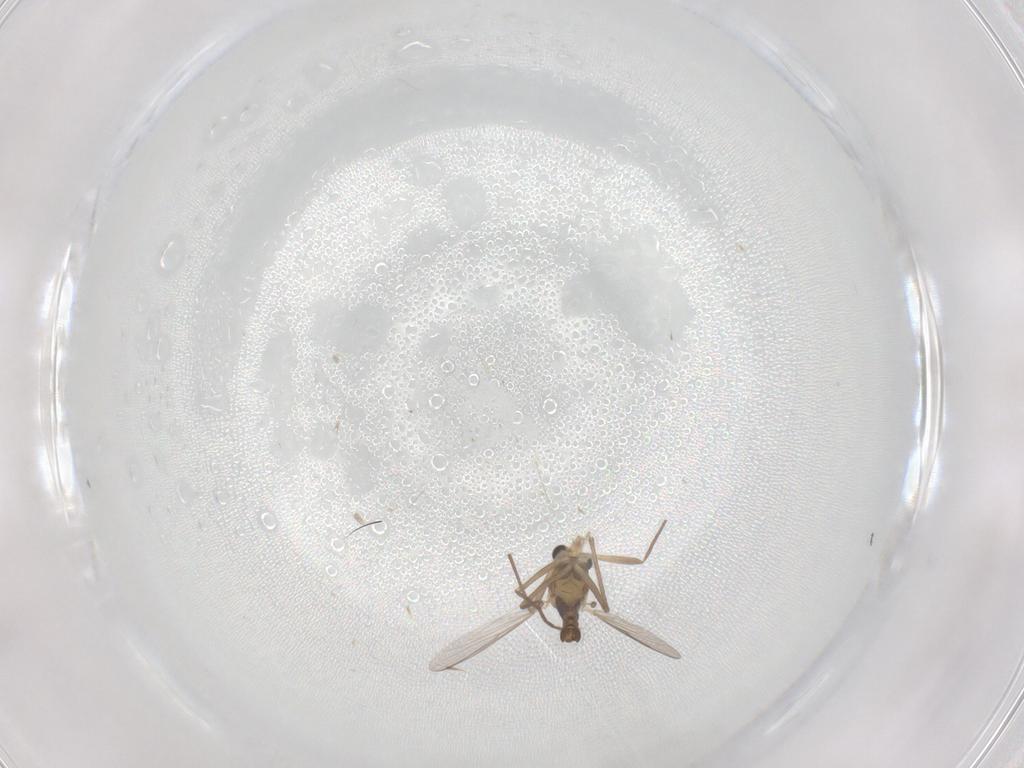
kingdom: Animalia
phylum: Arthropoda
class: Insecta
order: Diptera
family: Chironomidae
